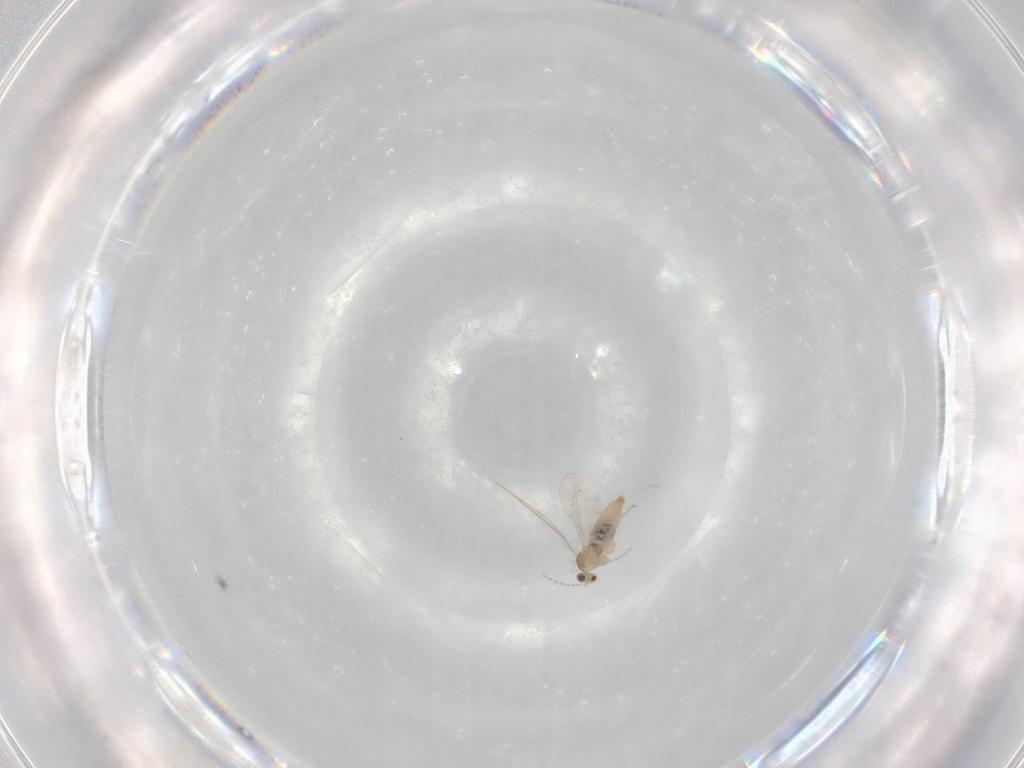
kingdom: Animalia
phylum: Arthropoda
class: Insecta
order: Diptera
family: Cecidomyiidae
